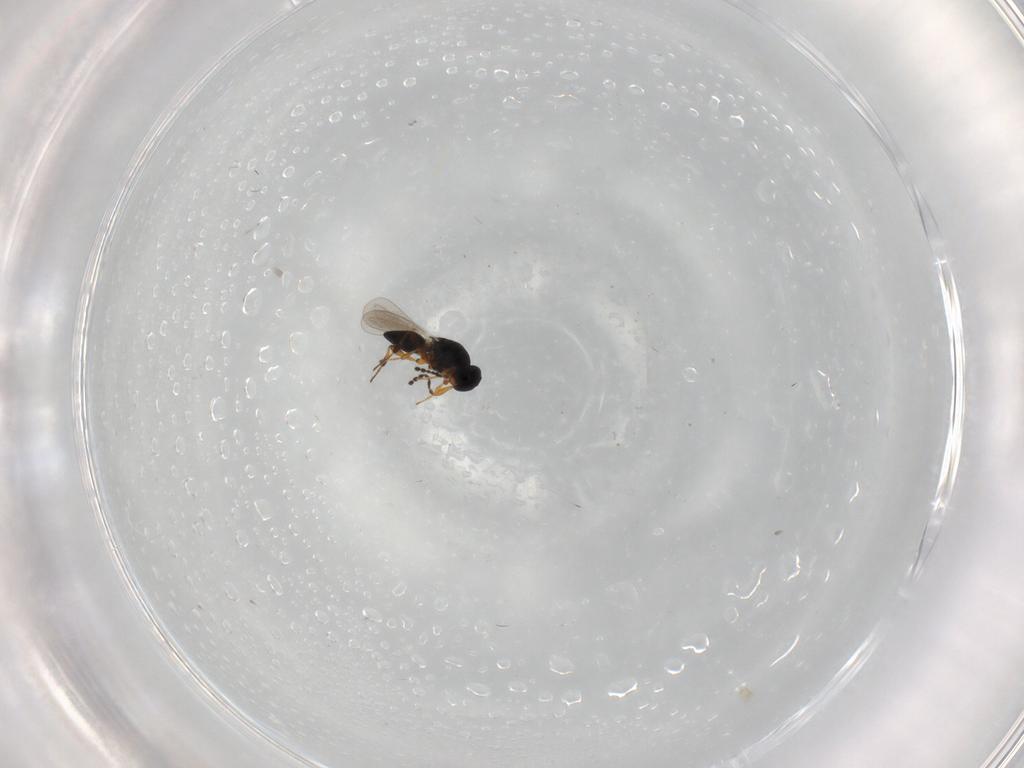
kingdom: Animalia
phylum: Arthropoda
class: Insecta
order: Hymenoptera
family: Platygastridae
